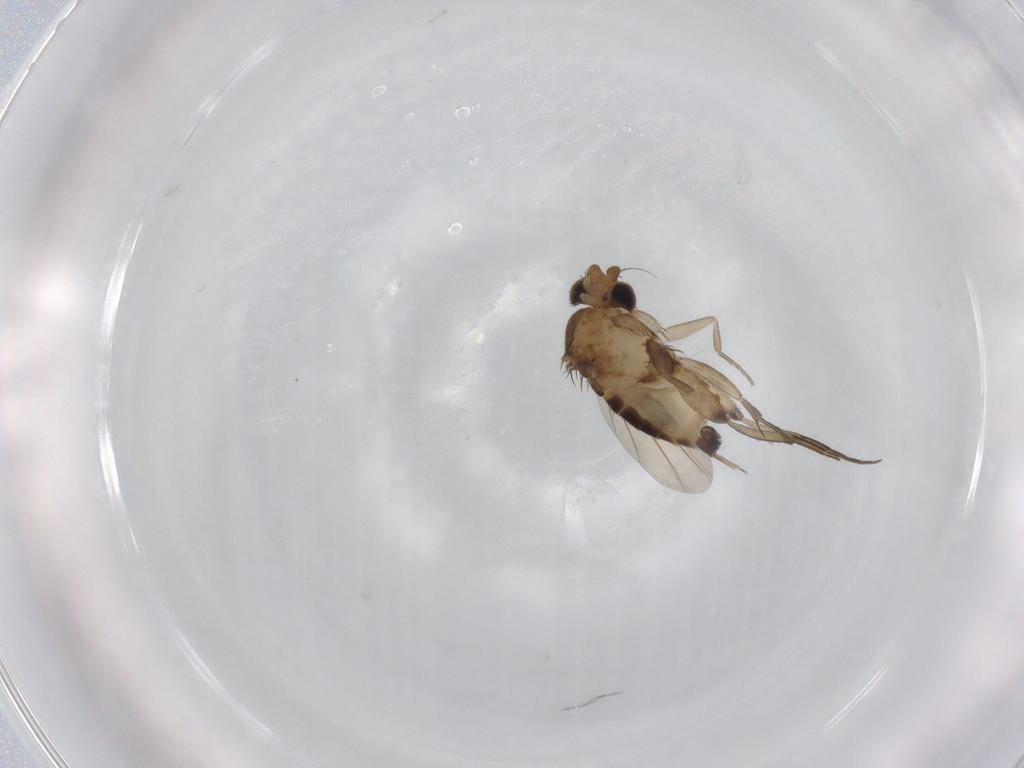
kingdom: Animalia
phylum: Arthropoda
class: Insecta
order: Diptera
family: Phoridae
